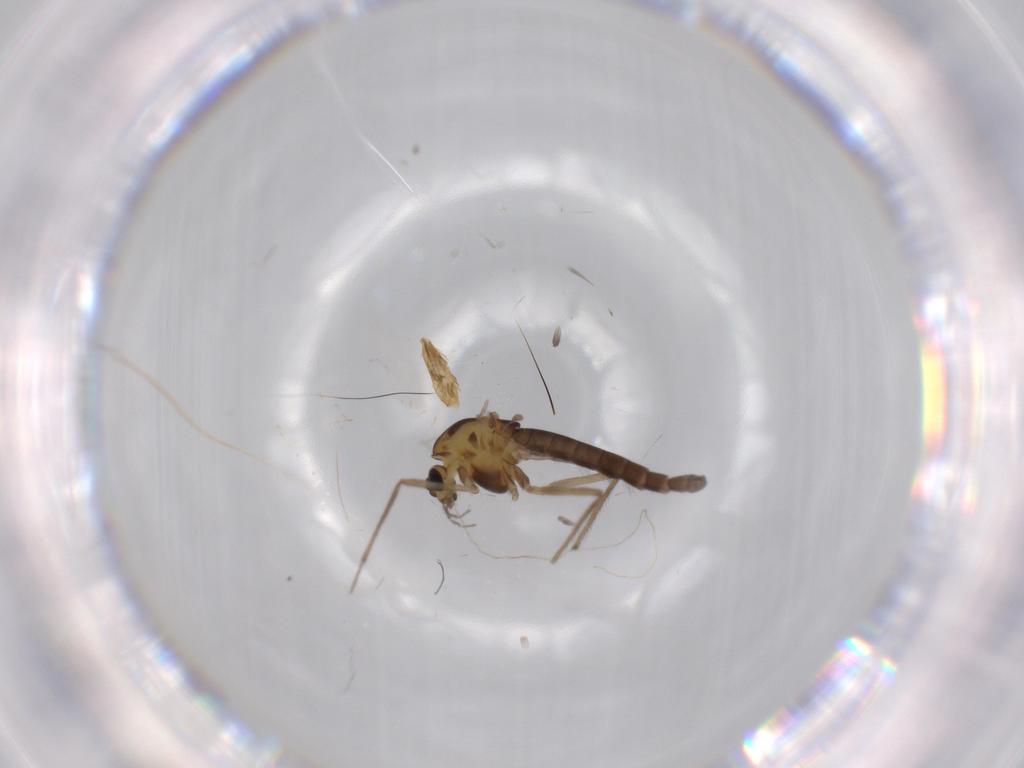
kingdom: Animalia
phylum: Arthropoda
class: Insecta
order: Diptera
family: Chironomidae
